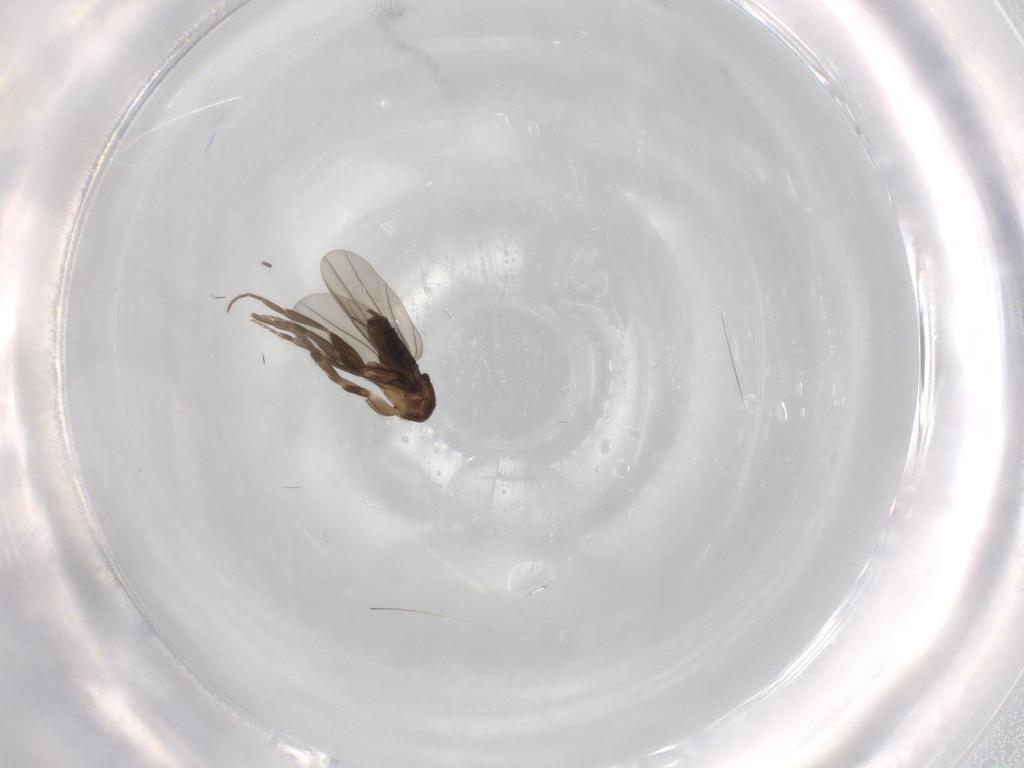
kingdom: Animalia
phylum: Arthropoda
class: Insecta
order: Diptera
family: Phoridae
